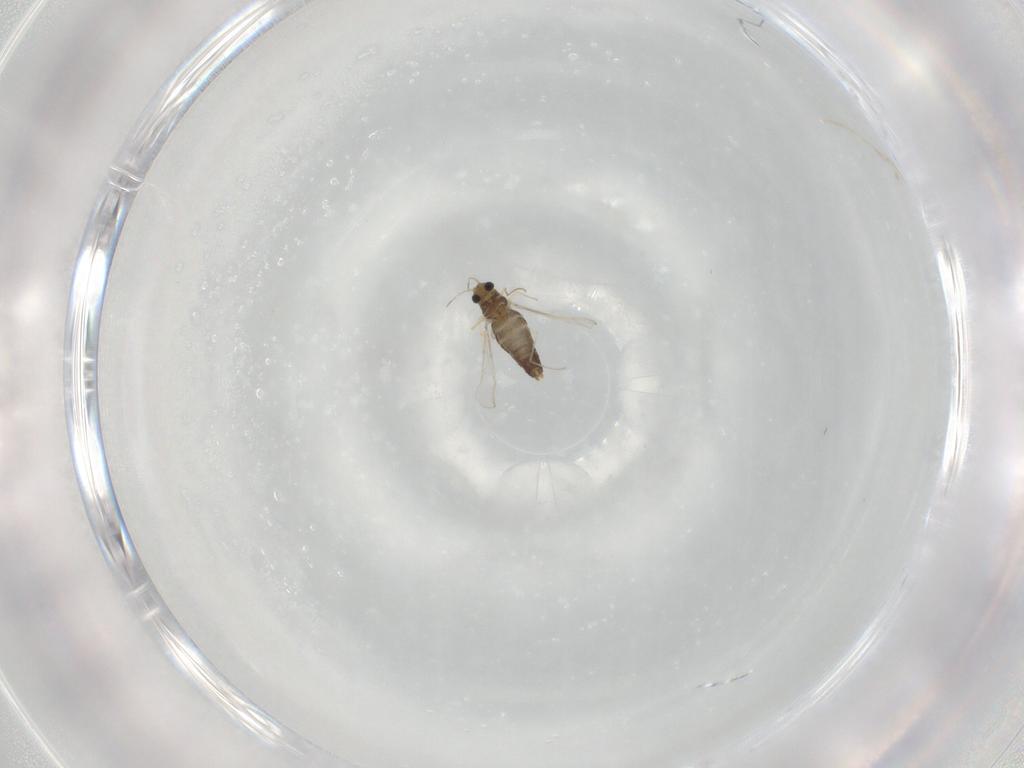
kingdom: Animalia
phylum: Arthropoda
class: Insecta
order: Diptera
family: Chironomidae
